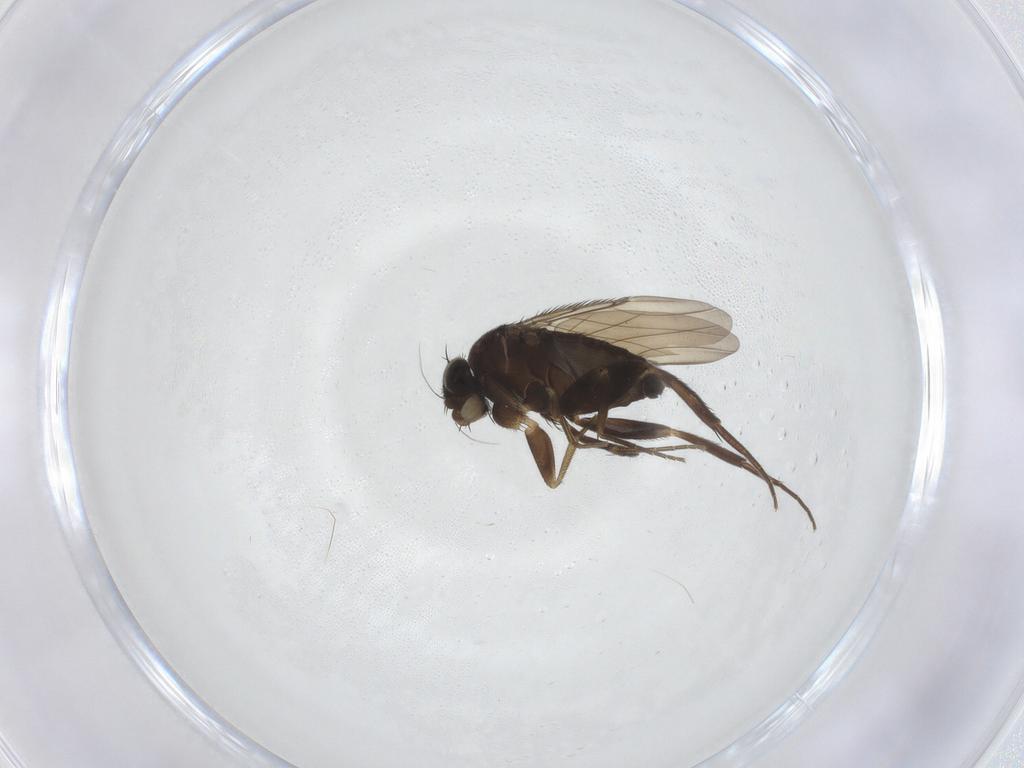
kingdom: Animalia
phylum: Arthropoda
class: Insecta
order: Diptera
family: Phoridae
